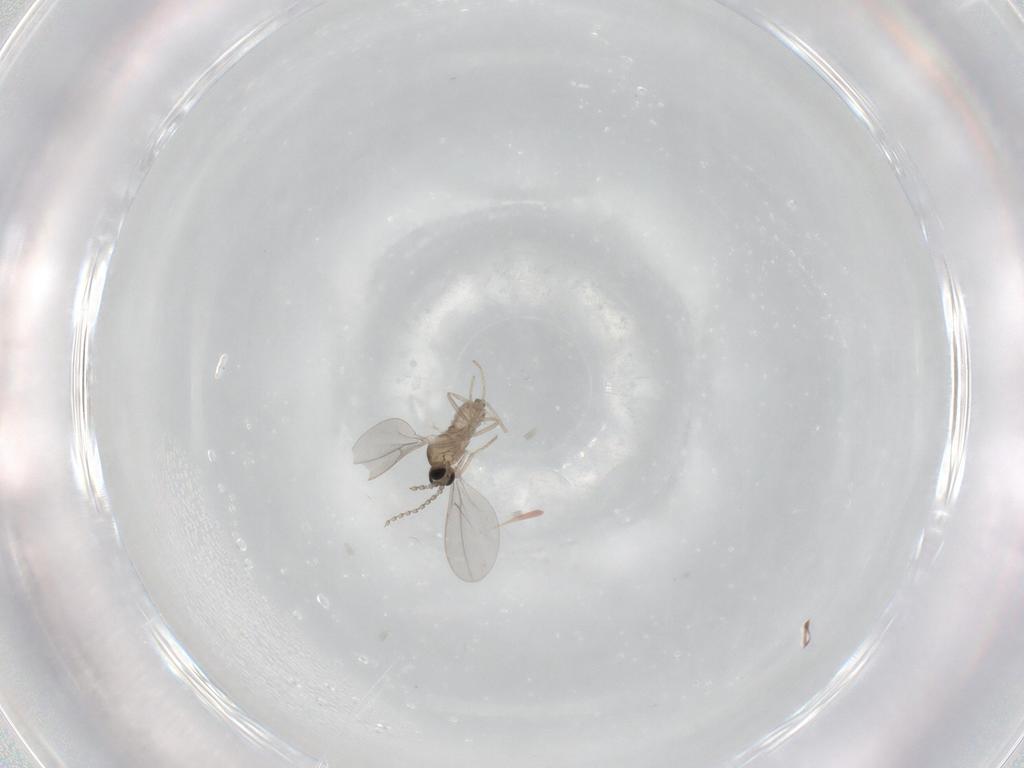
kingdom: Animalia
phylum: Arthropoda
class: Insecta
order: Diptera
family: Cecidomyiidae
